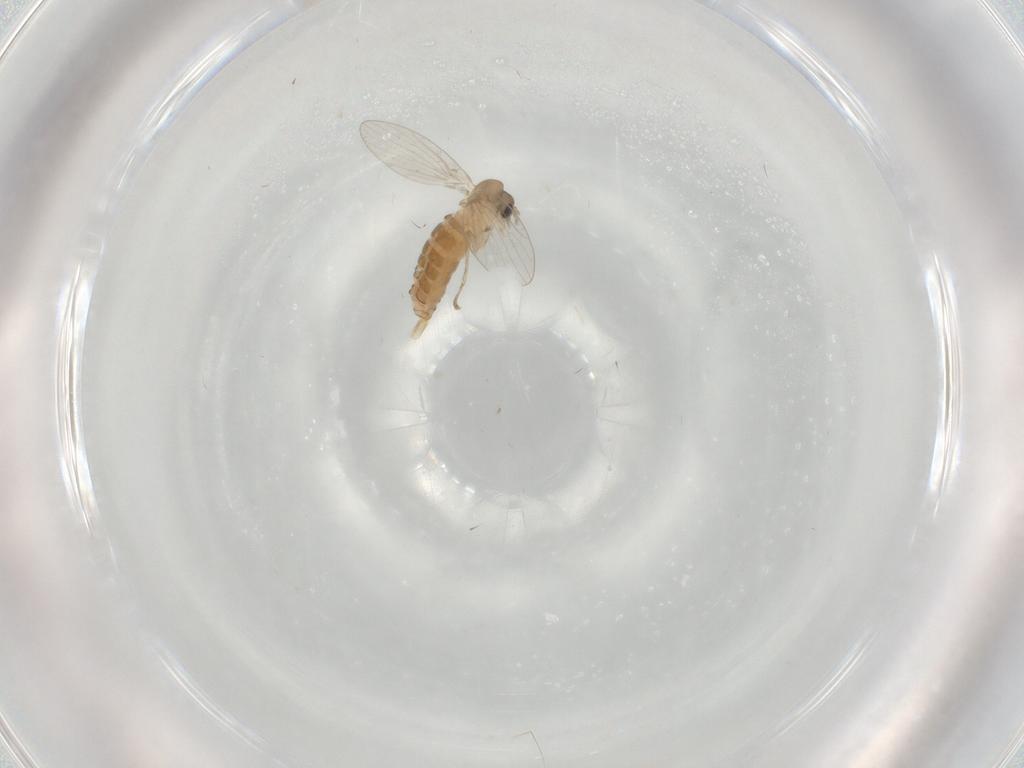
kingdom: Animalia
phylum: Arthropoda
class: Insecta
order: Diptera
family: Psychodidae
